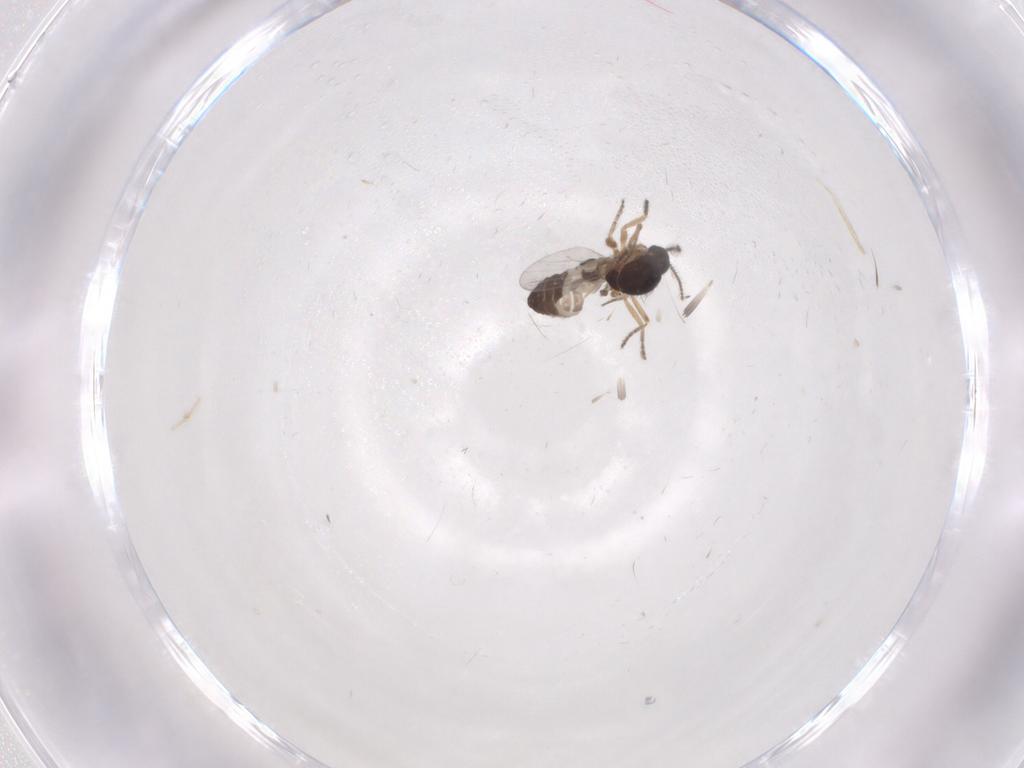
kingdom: Animalia
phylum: Arthropoda
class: Insecta
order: Diptera
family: Ceratopogonidae
